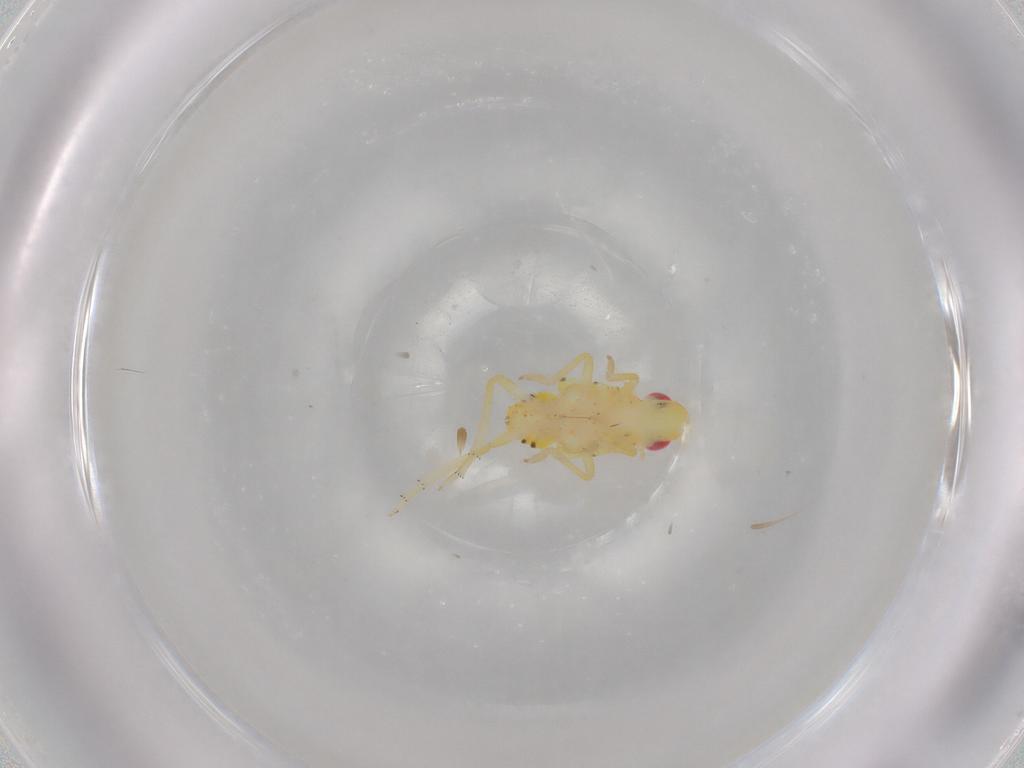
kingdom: Animalia
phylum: Arthropoda
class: Insecta
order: Hemiptera
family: Tropiduchidae
